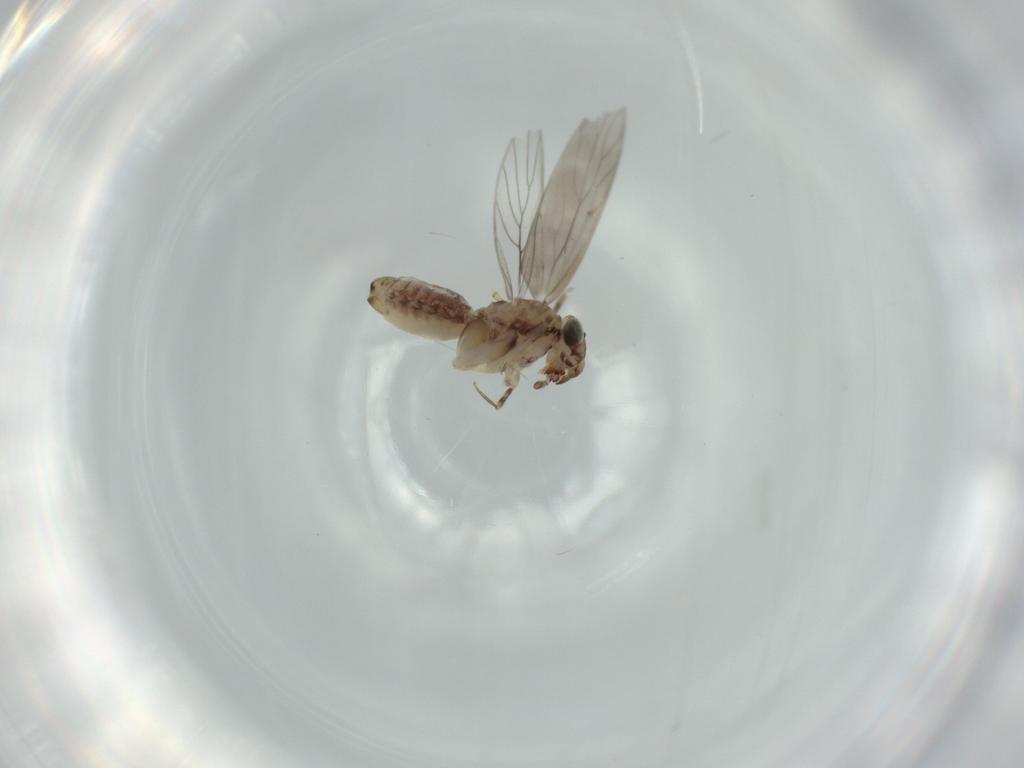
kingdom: Animalia
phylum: Arthropoda
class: Insecta
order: Psocodea
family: Lepidopsocidae
